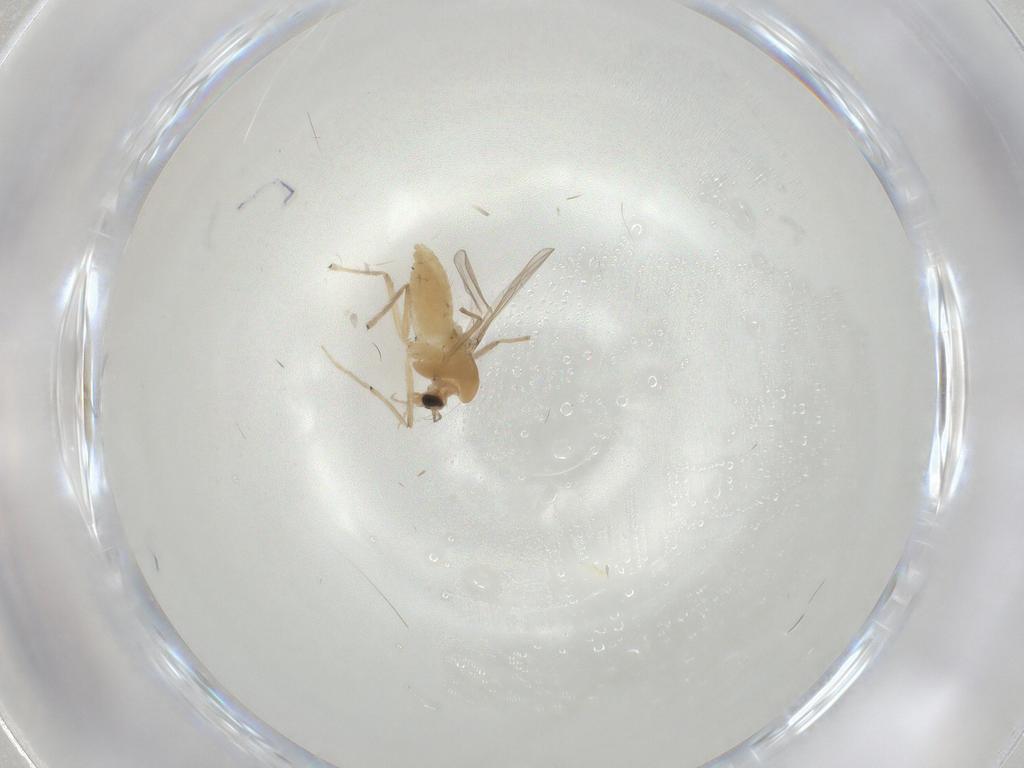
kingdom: Animalia
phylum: Arthropoda
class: Insecta
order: Diptera
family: Chironomidae
